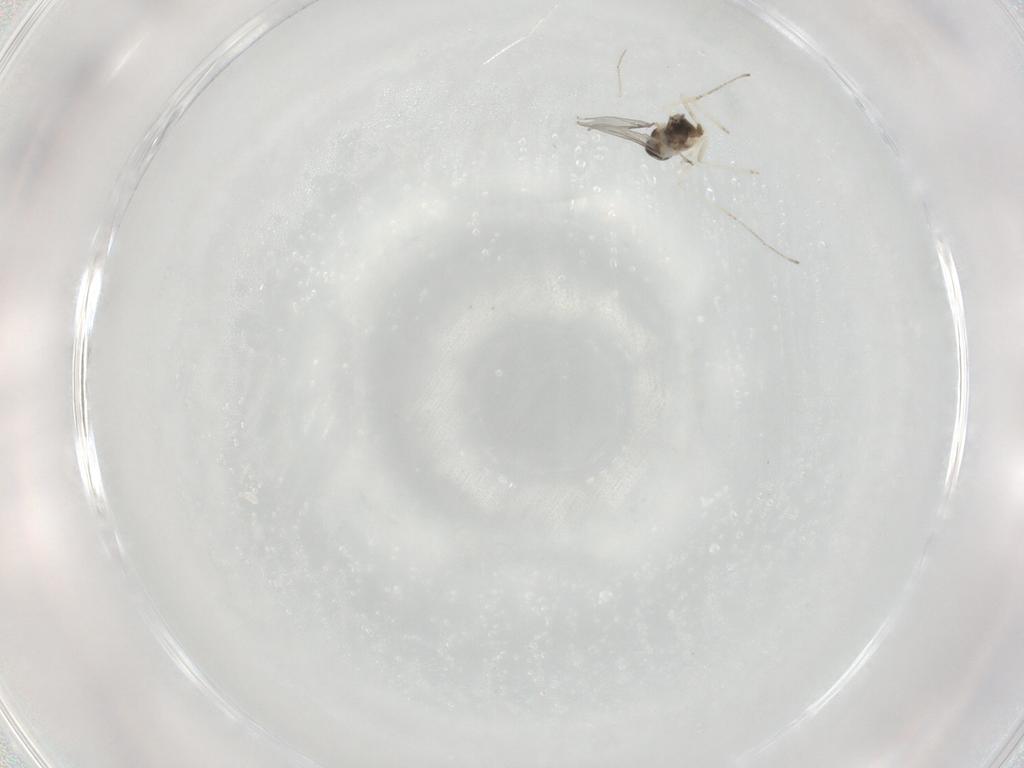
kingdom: Animalia
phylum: Arthropoda
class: Insecta
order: Diptera
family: Cecidomyiidae
